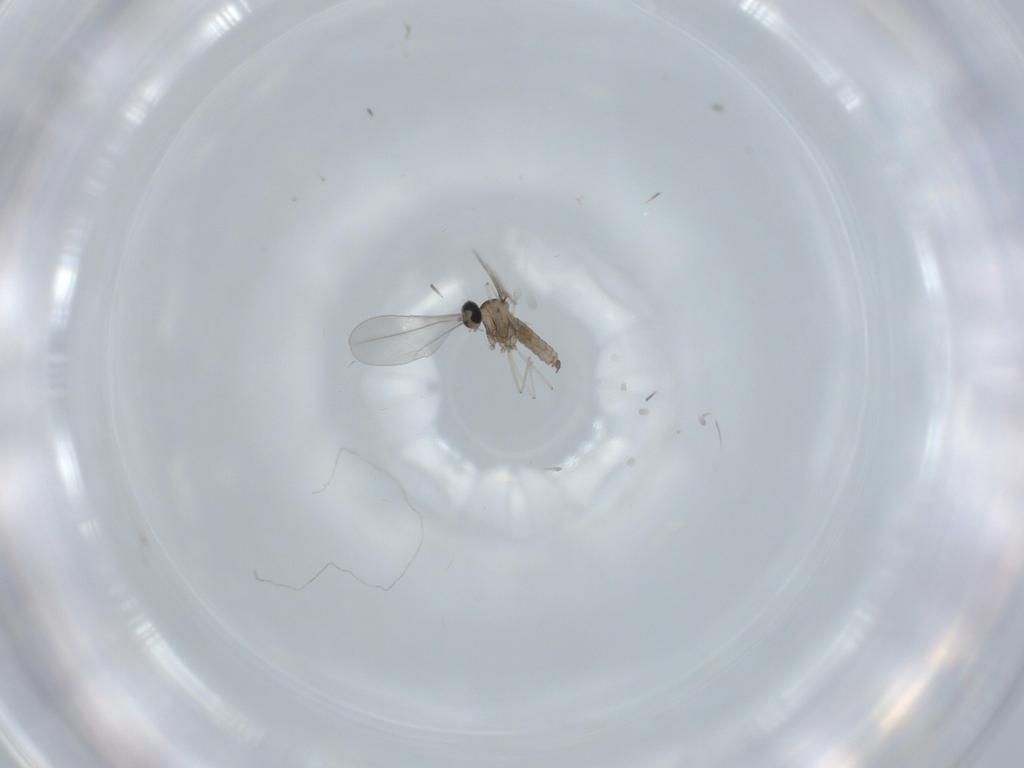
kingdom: Animalia
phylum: Arthropoda
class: Insecta
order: Diptera
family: Cecidomyiidae
